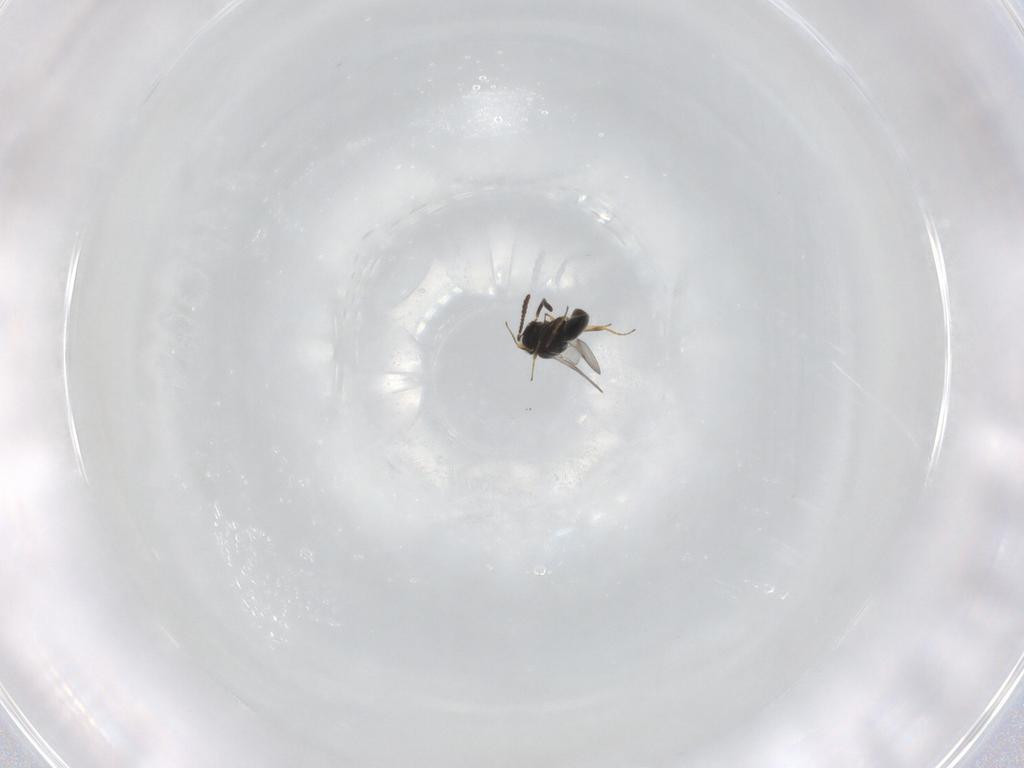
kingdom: Animalia
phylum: Arthropoda
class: Insecta
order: Hymenoptera
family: Scelionidae
